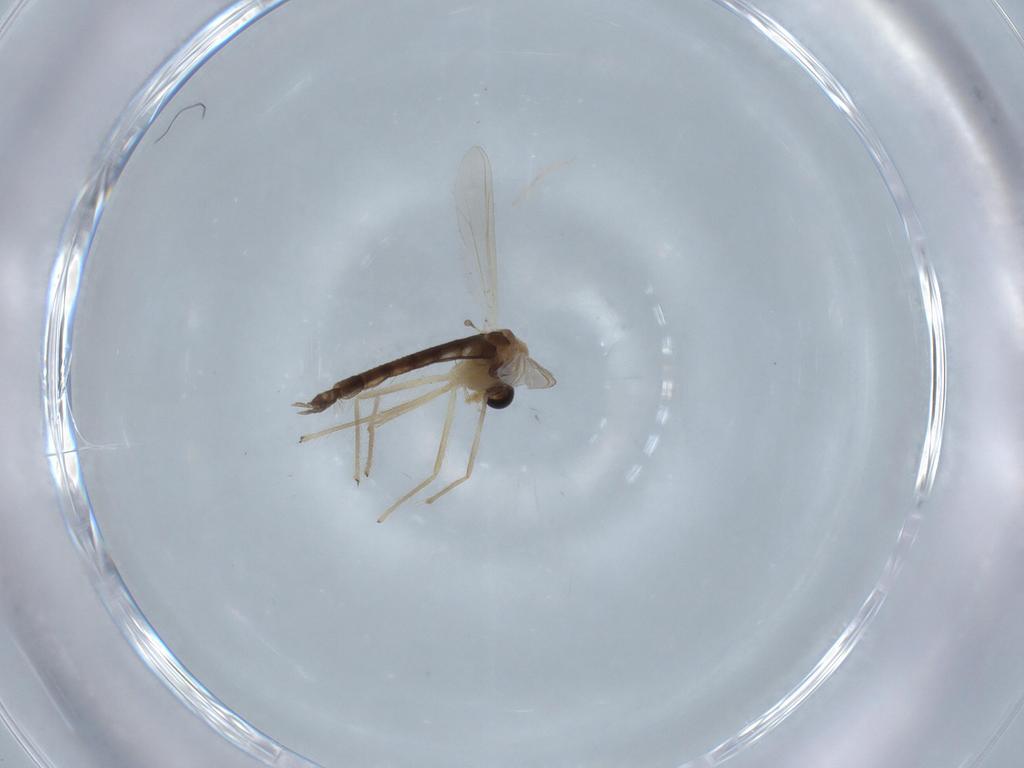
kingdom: Animalia
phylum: Arthropoda
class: Insecta
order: Diptera
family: Chironomidae
